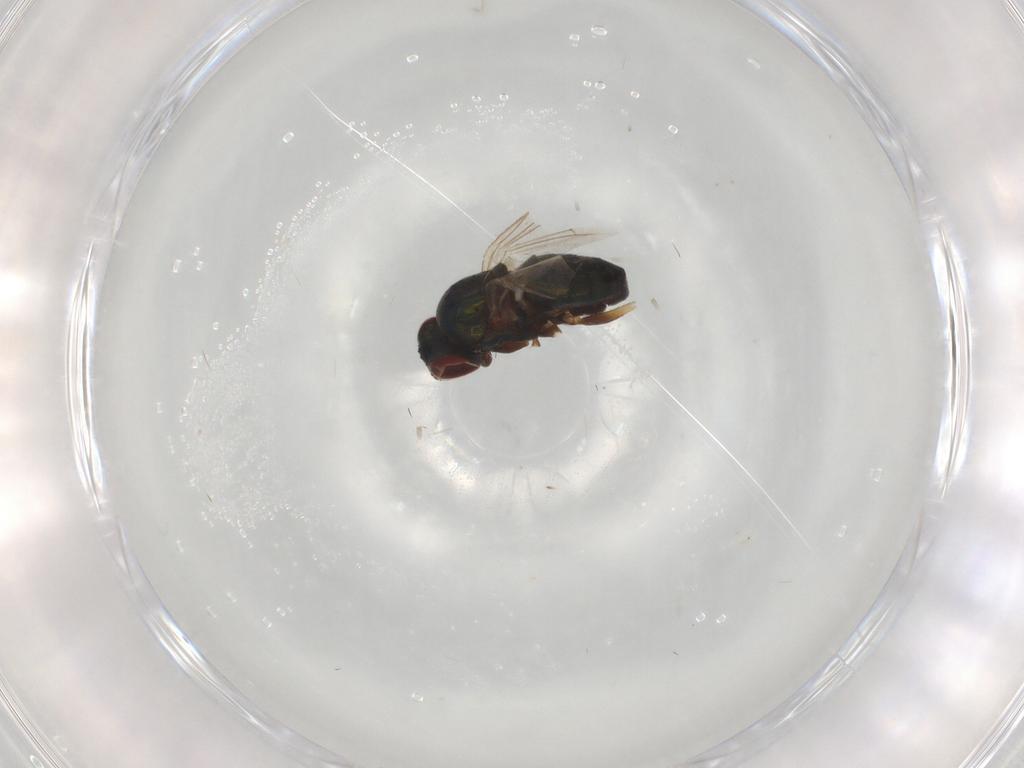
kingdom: Animalia
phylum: Arthropoda
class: Insecta
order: Diptera
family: Dolichopodidae
